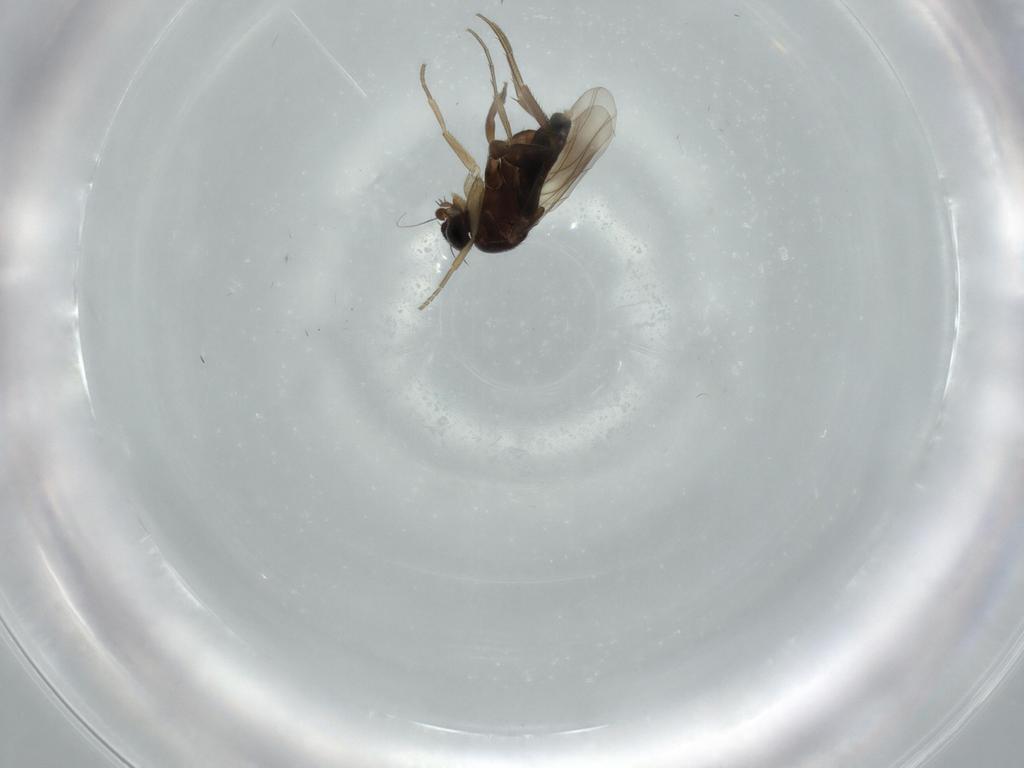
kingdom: Animalia
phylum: Arthropoda
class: Insecta
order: Diptera
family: Phoridae
